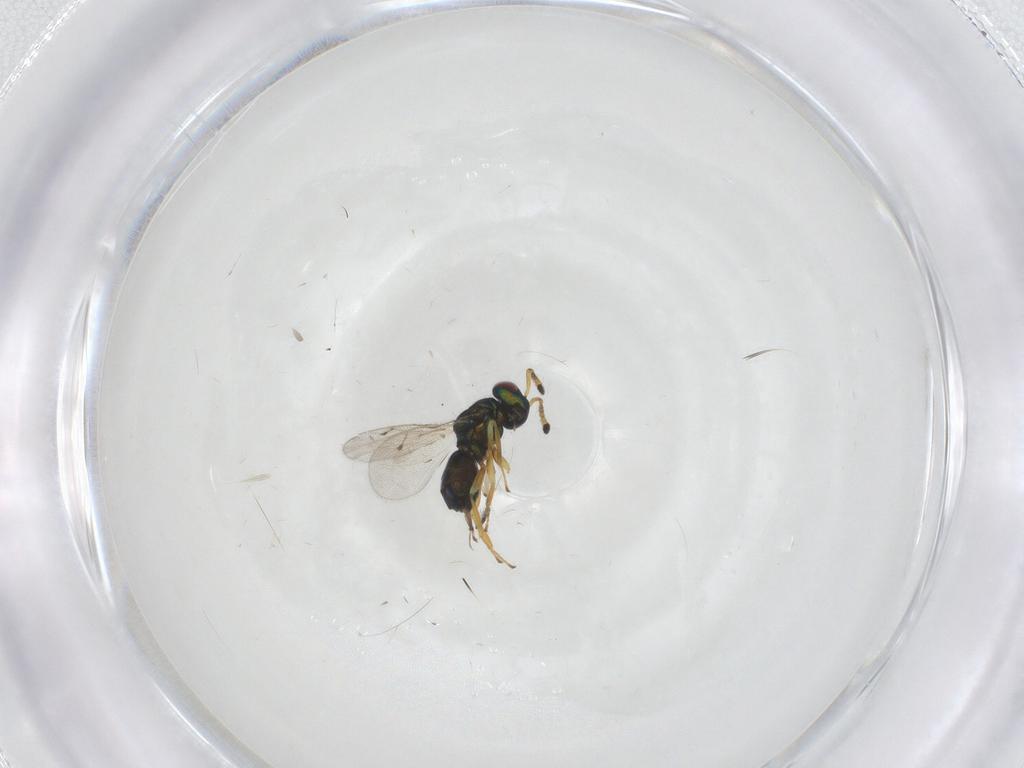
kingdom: Animalia
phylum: Arthropoda
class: Insecta
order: Hymenoptera
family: Pteromalidae
